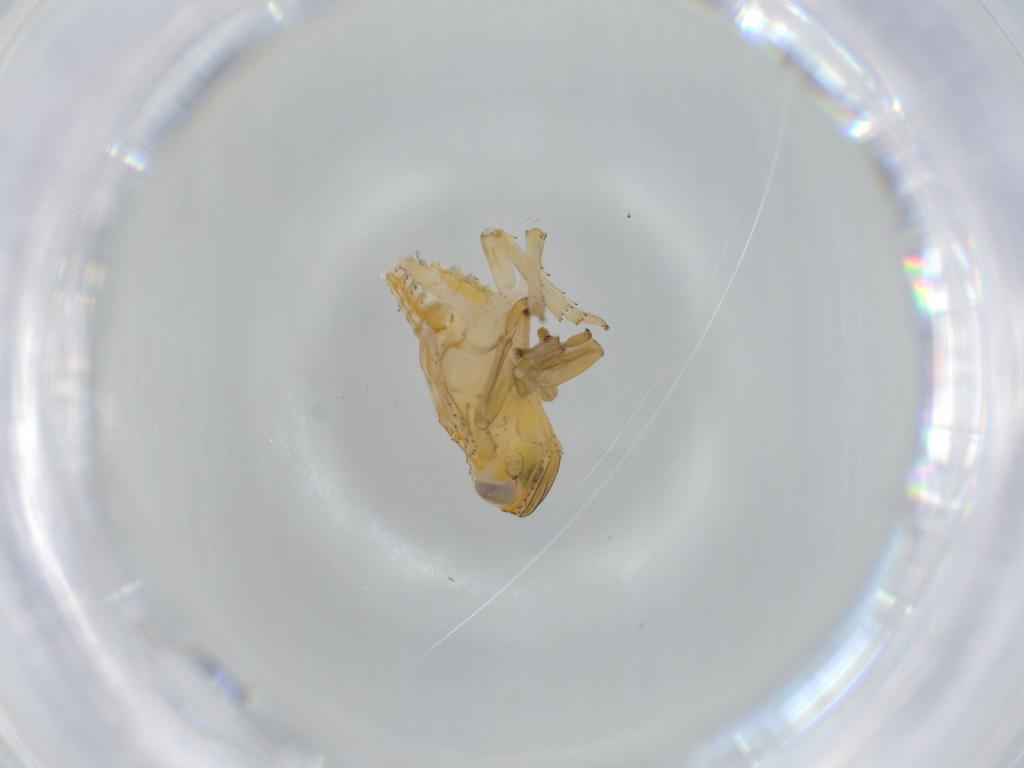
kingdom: Animalia
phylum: Arthropoda
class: Insecta
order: Hemiptera
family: Issidae
